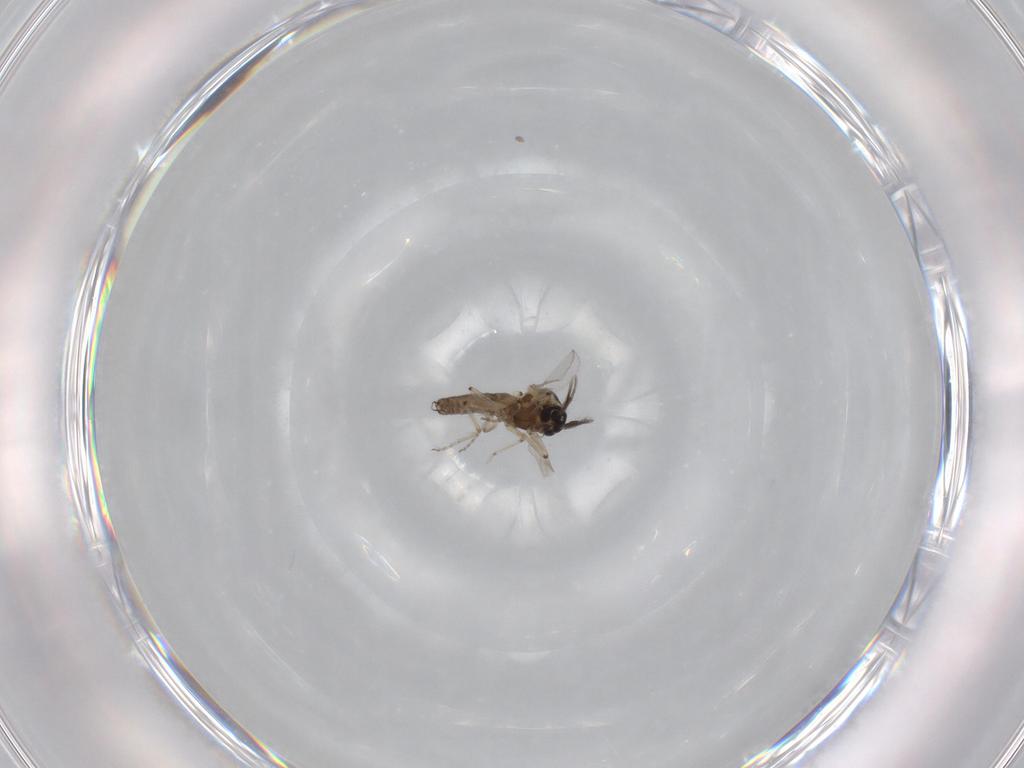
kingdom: Animalia
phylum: Arthropoda
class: Insecta
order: Diptera
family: Ceratopogonidae
